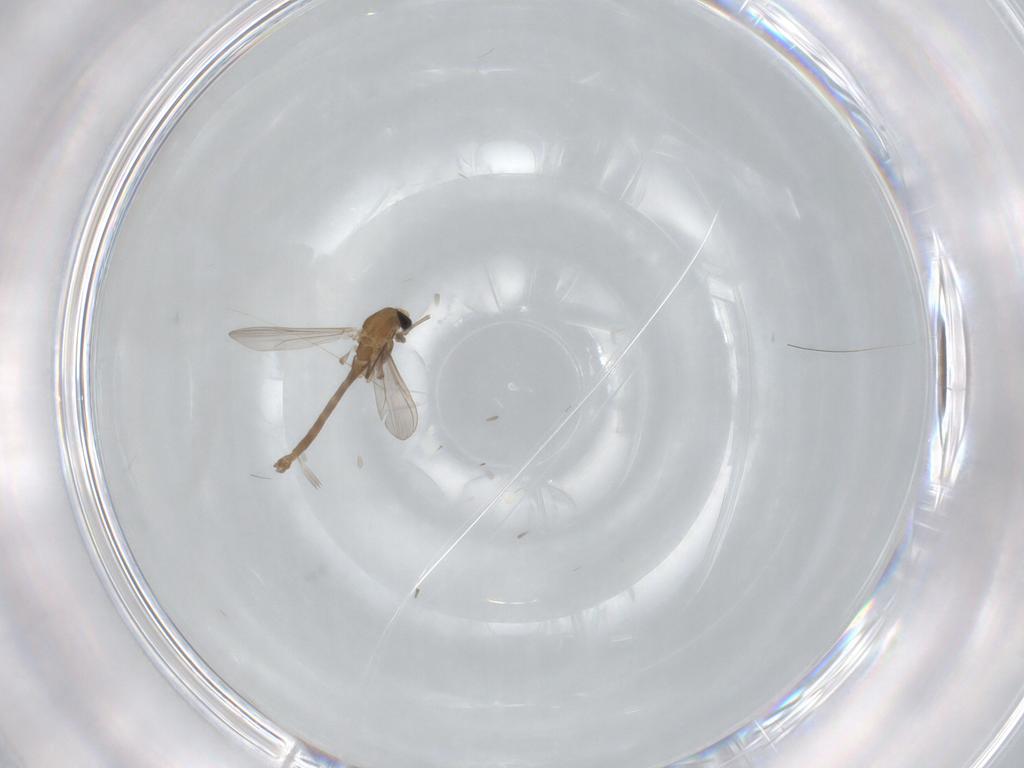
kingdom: Animalia
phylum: Arthropoda
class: Insecta
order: Diptera
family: Chironomidae
